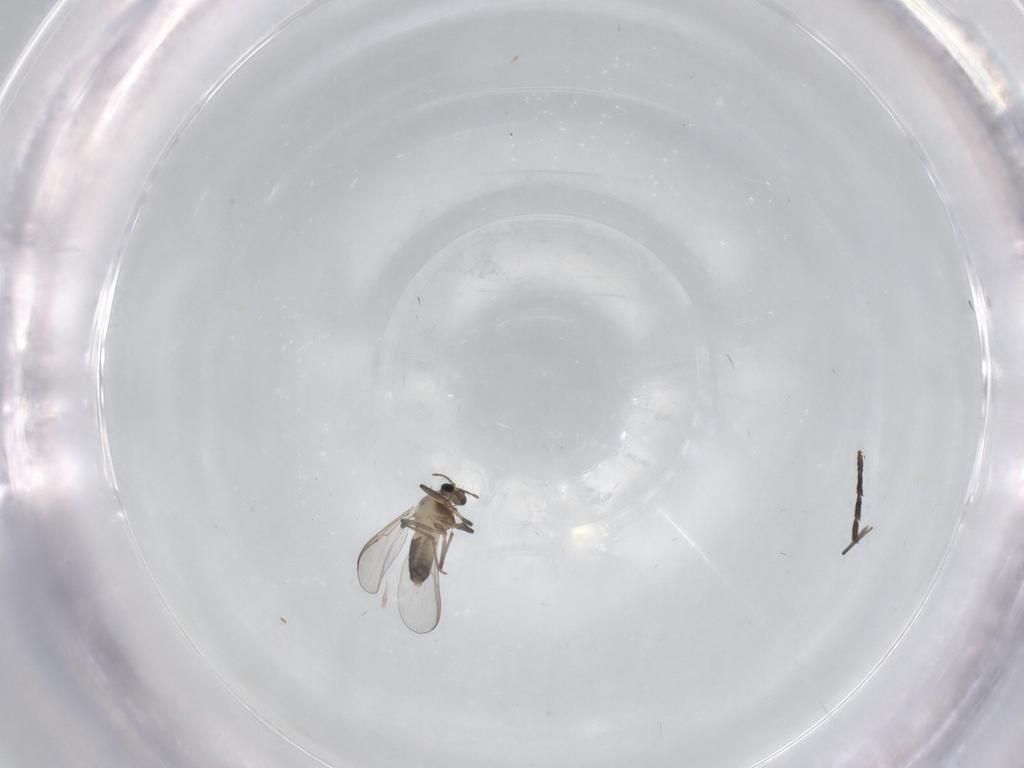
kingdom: Animalia
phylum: Arthropoda
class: Insecta
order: Diptera
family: Chironomidae
